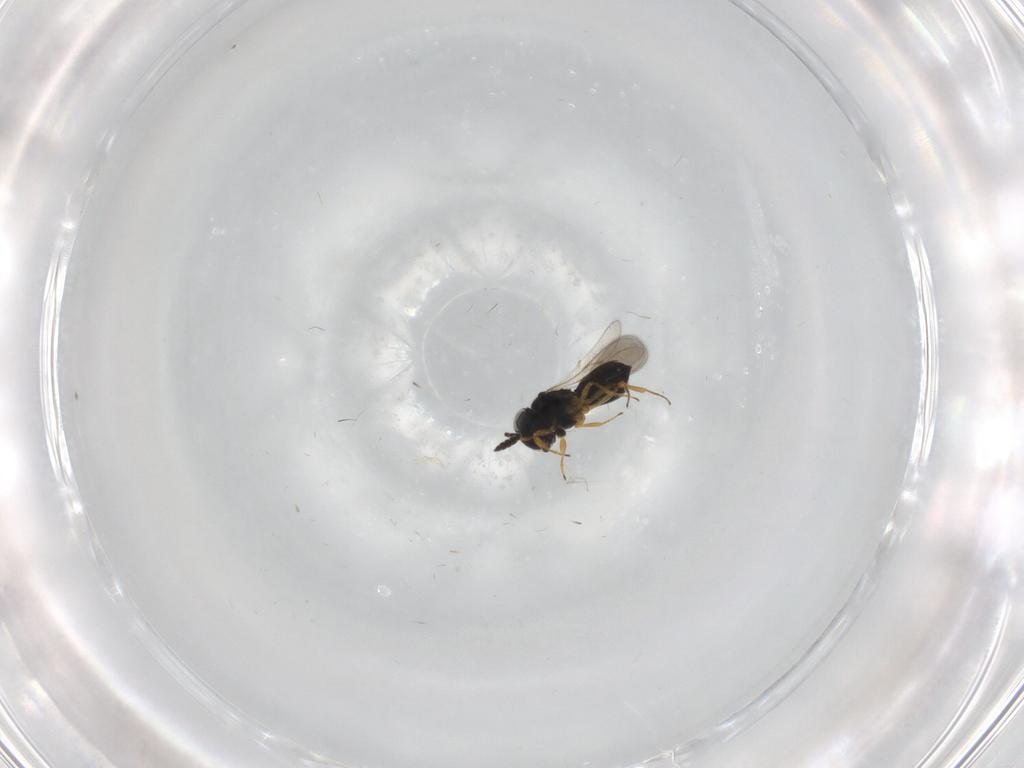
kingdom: Animalia
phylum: Arthropoda
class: Insecta
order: Hymenoptera
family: Scelionidae
